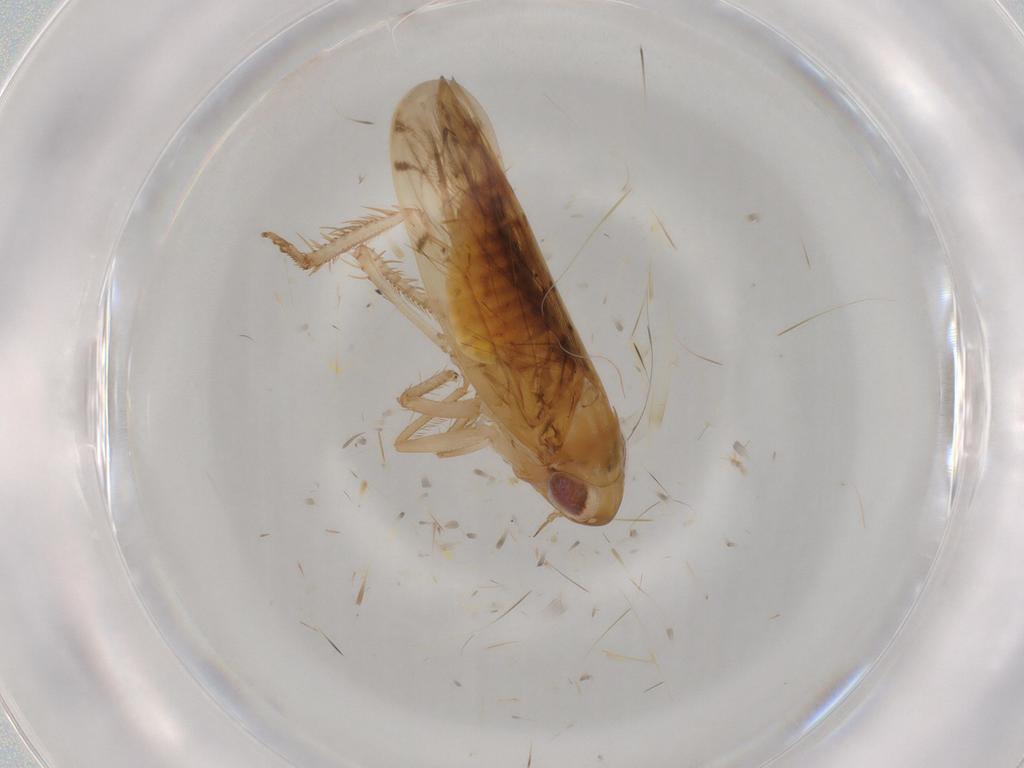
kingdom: Animalia
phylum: Arthropoda
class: Insecta
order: Hemiptera
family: Cicadellidae
